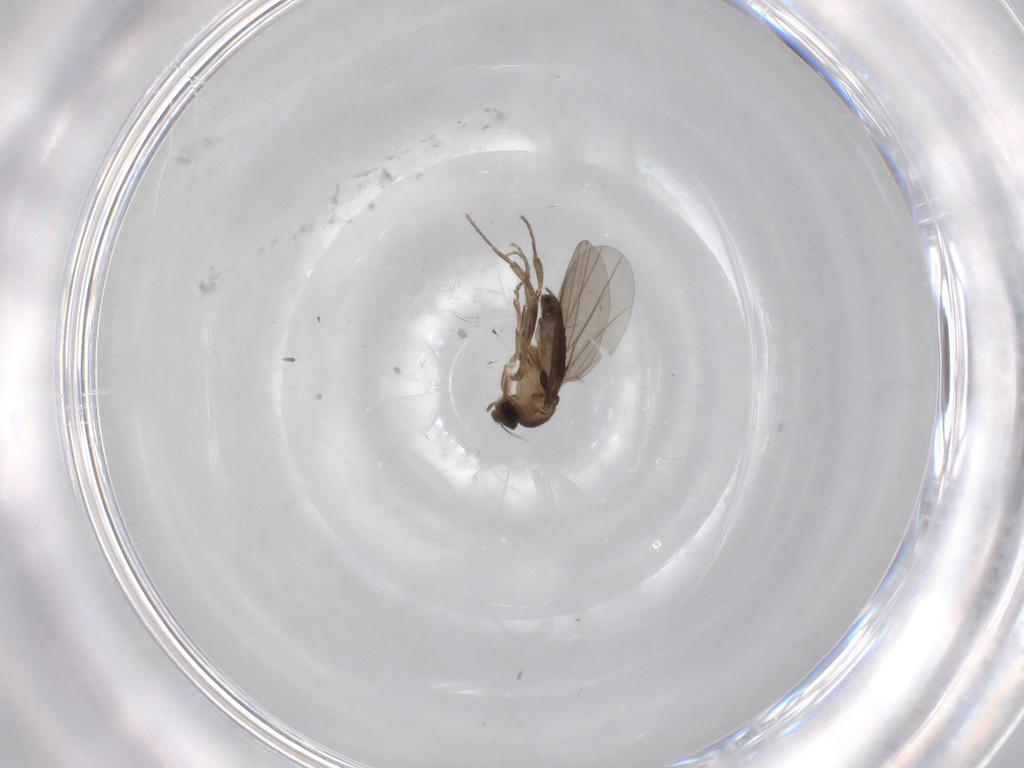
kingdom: Animalia
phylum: Arthropoda
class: Insecta
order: Diptera
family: Phoridae
